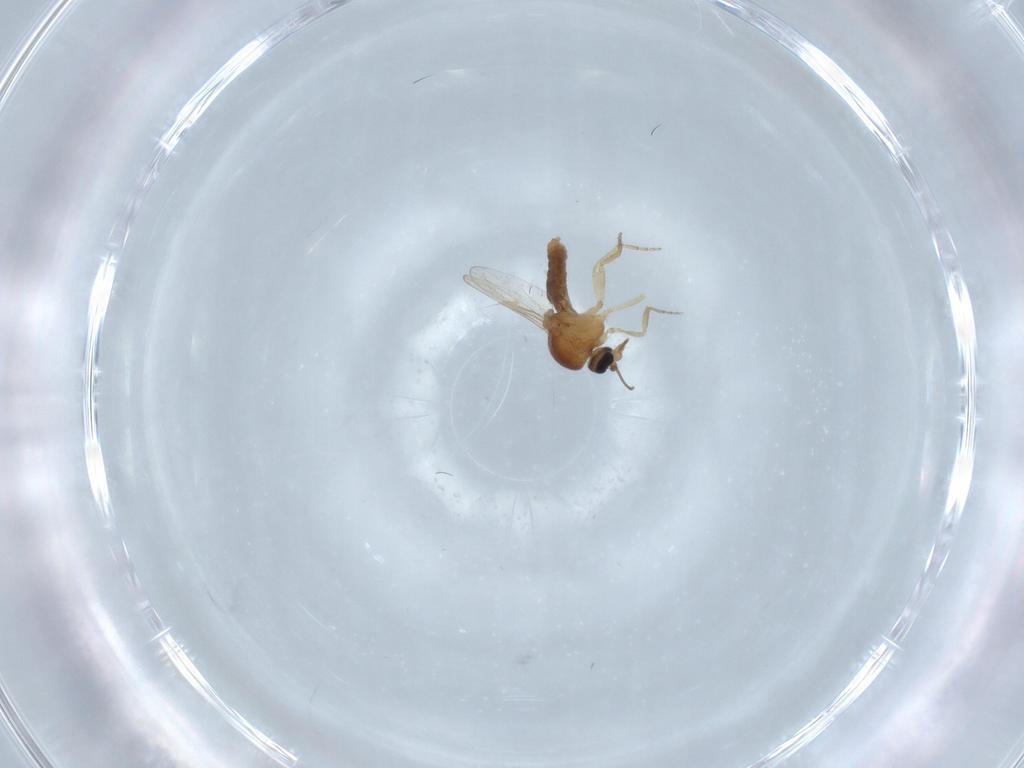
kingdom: Animalia
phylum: Arthropoda
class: Insecta
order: Diptera
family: Ceratopogonidae
